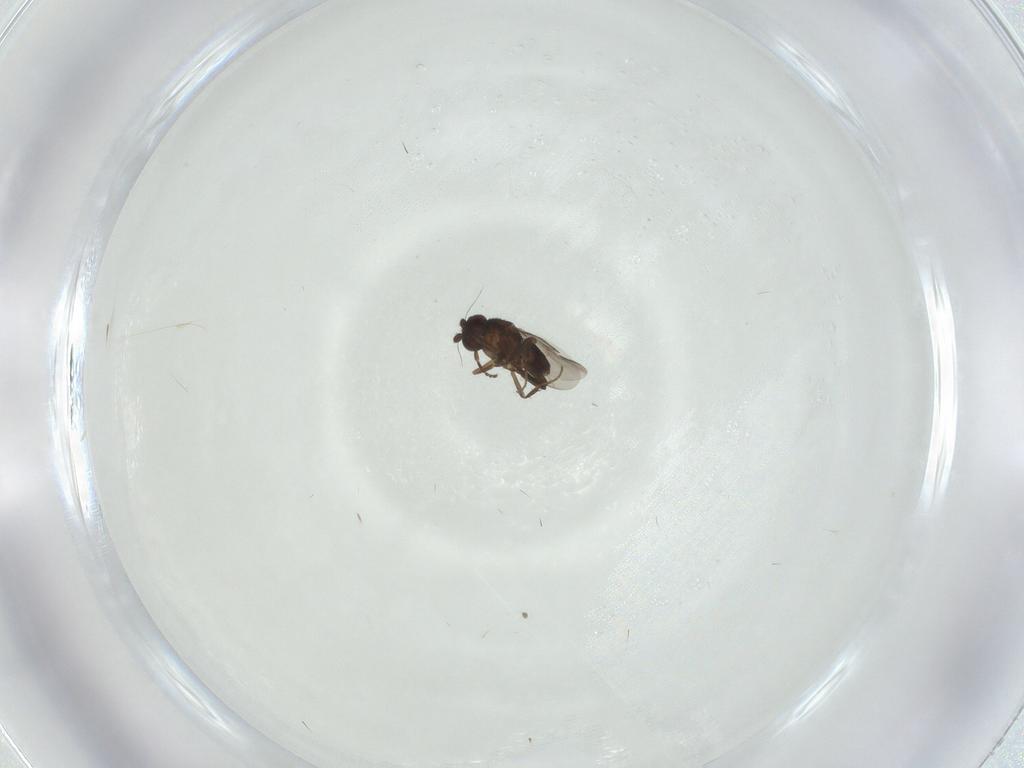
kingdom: Animalia
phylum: Arthropoda
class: Insecta
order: Diptera
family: Sphaeroceridae
